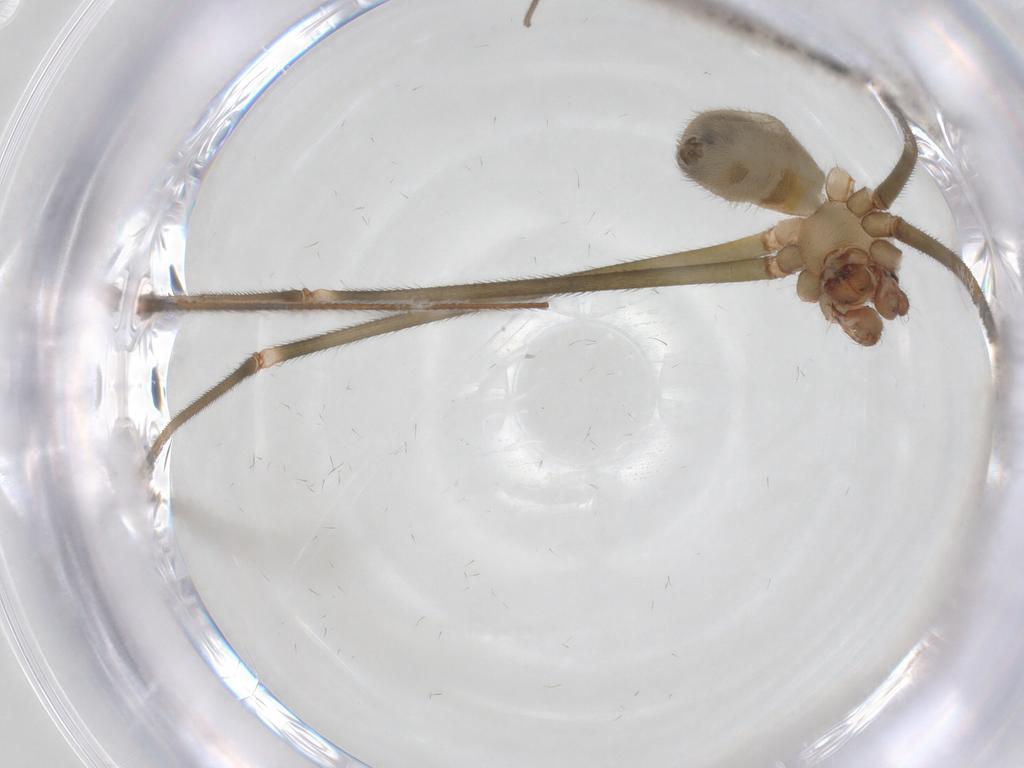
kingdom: Animalia
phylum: Arthropoda
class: Arachnida
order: Araneae
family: Pholcidae
